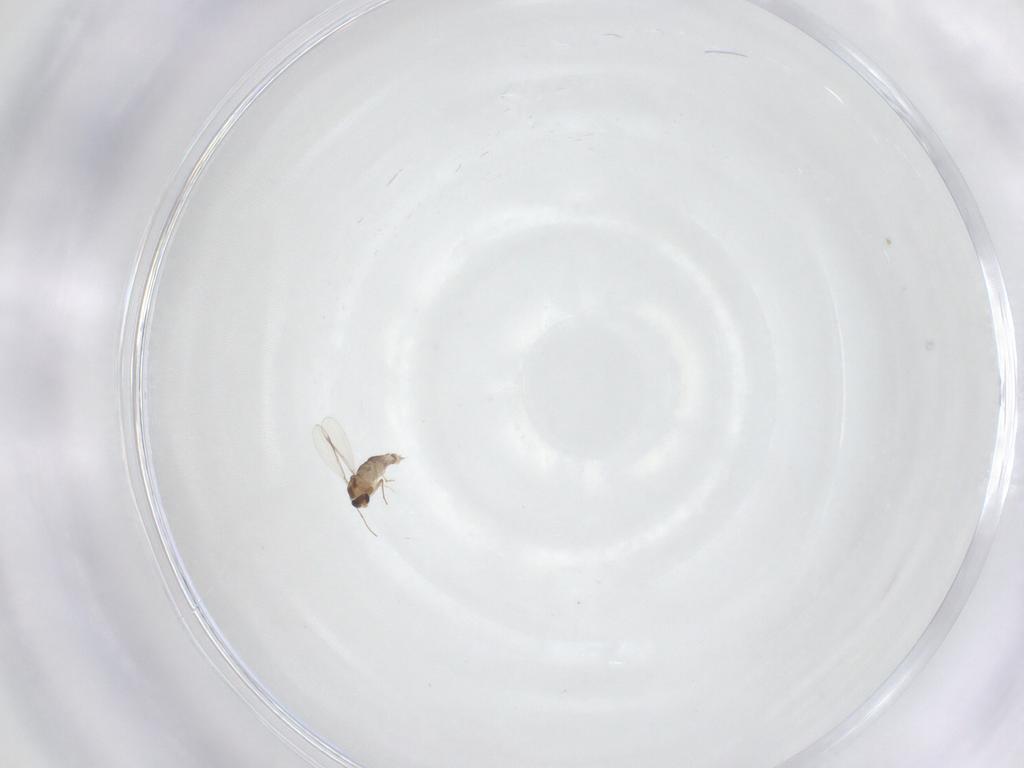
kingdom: Animalia
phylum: Arthropoda
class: Insecta
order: Diptera
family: Chironomidae
